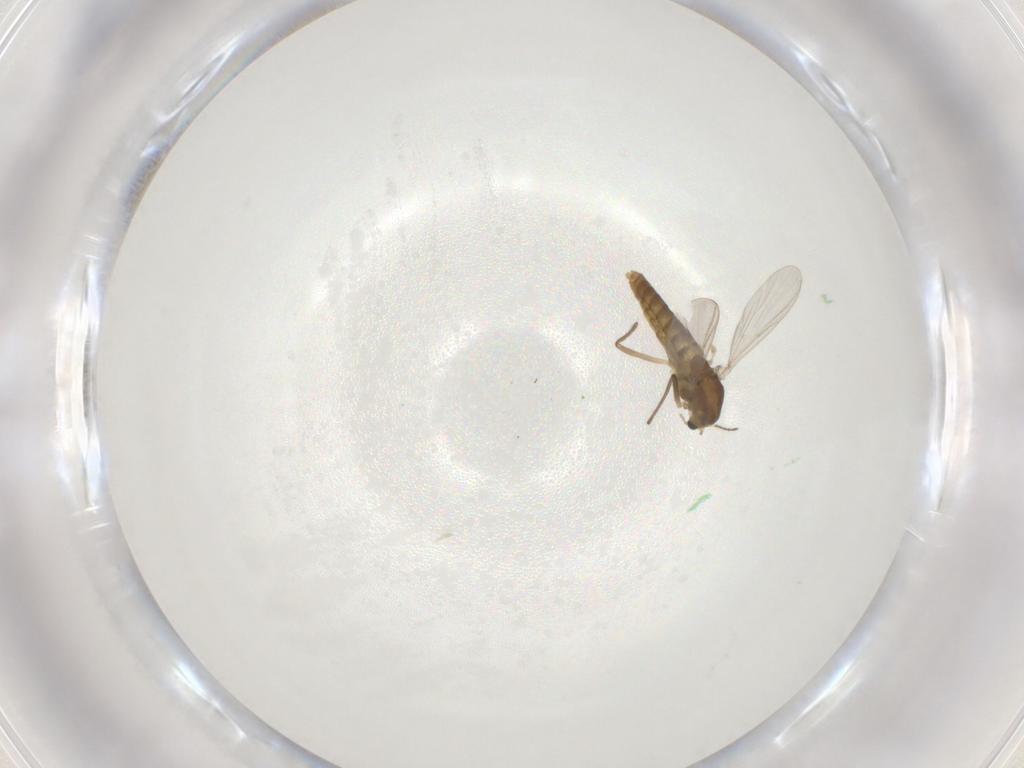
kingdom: Animalia
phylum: Arthropoda
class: Insecta
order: Diptera
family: Chironomidae
